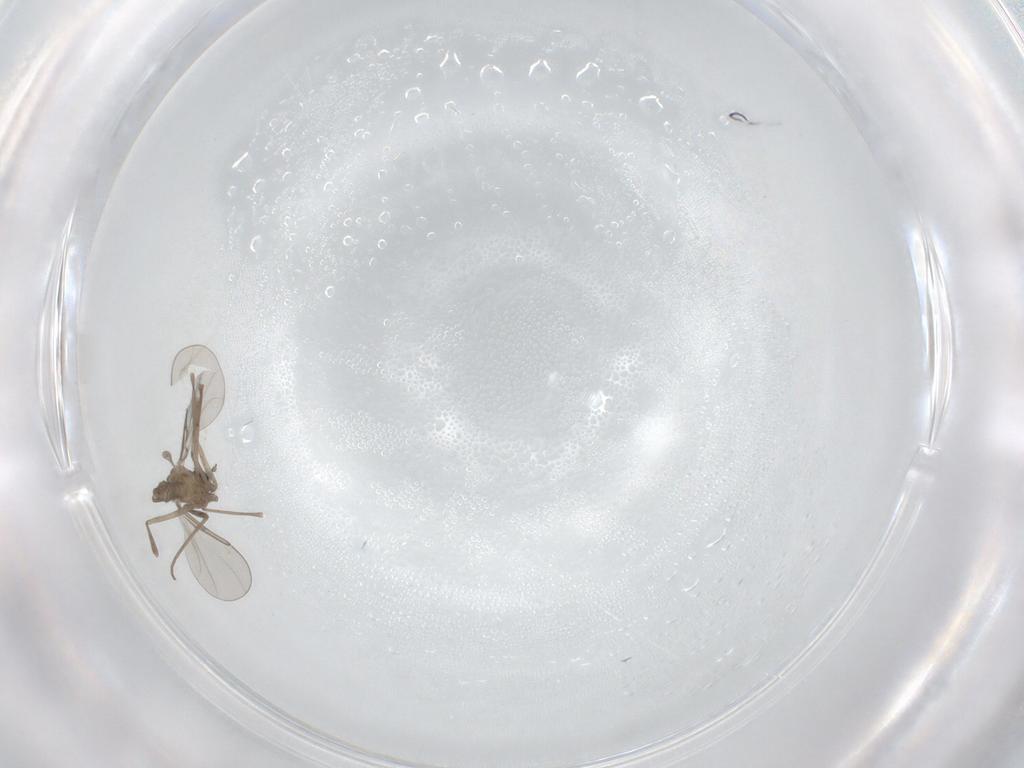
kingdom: Animalia
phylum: Arthropoda
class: Insecta
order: Diptera
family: Cecidomyiidae
